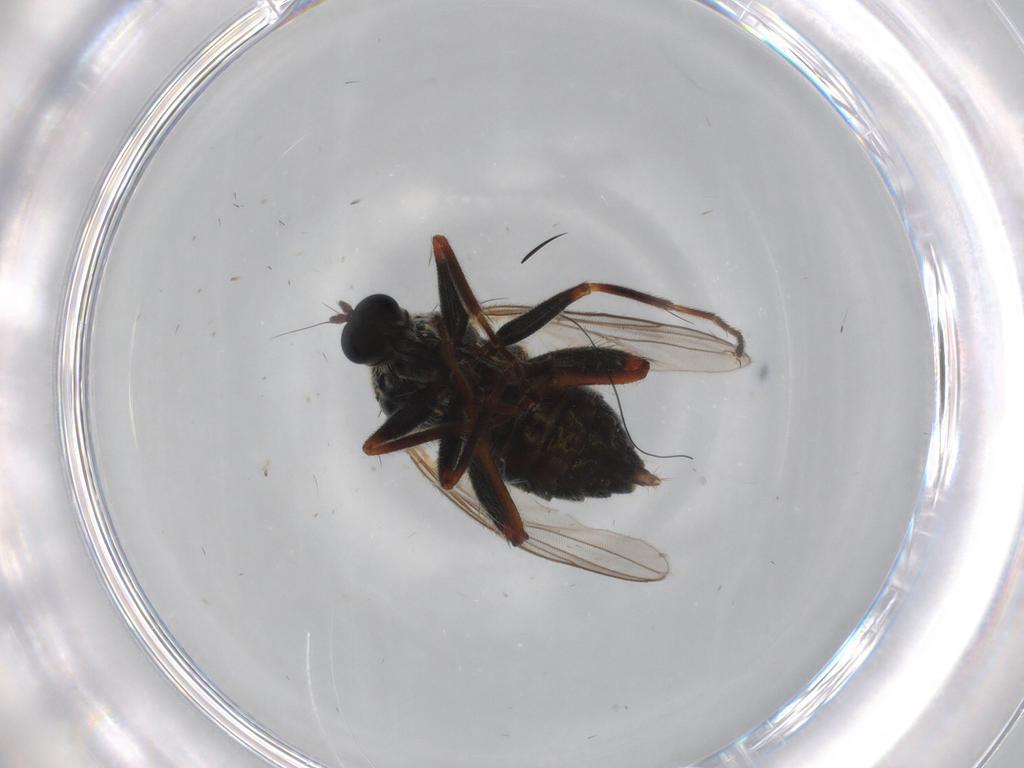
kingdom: Animalia
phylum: Arthropoda
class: Insecta
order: Diptera
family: Hybotidae
